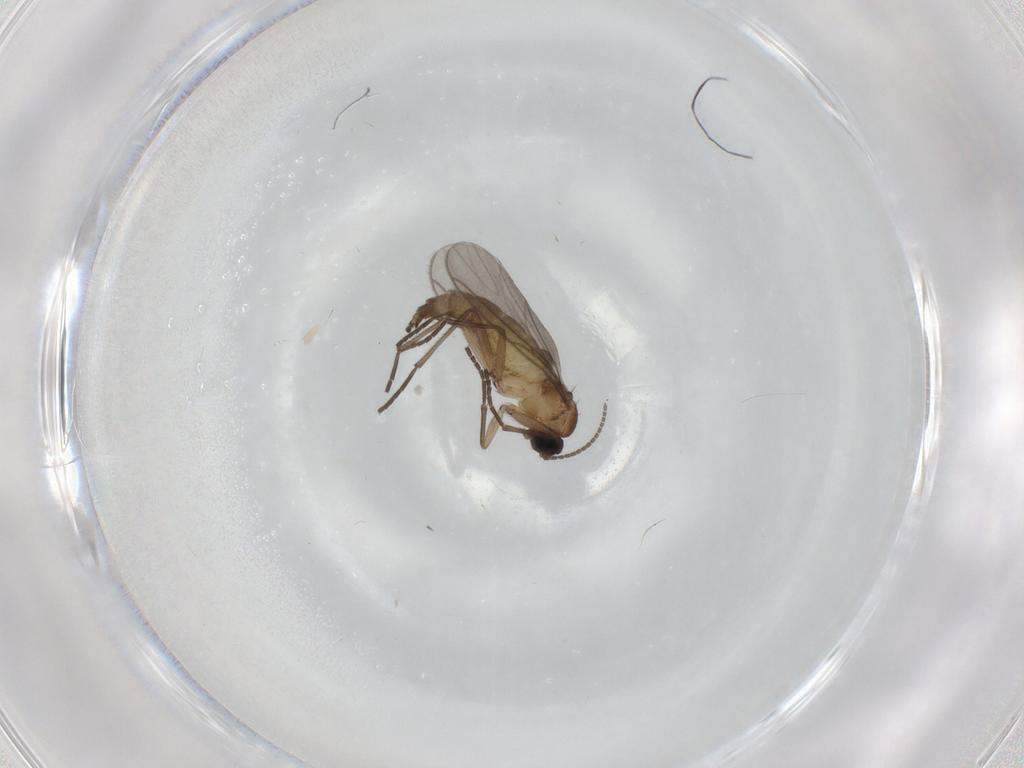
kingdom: Animalia
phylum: Arthropoda
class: Insecta
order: Diptera
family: Sciaridae
